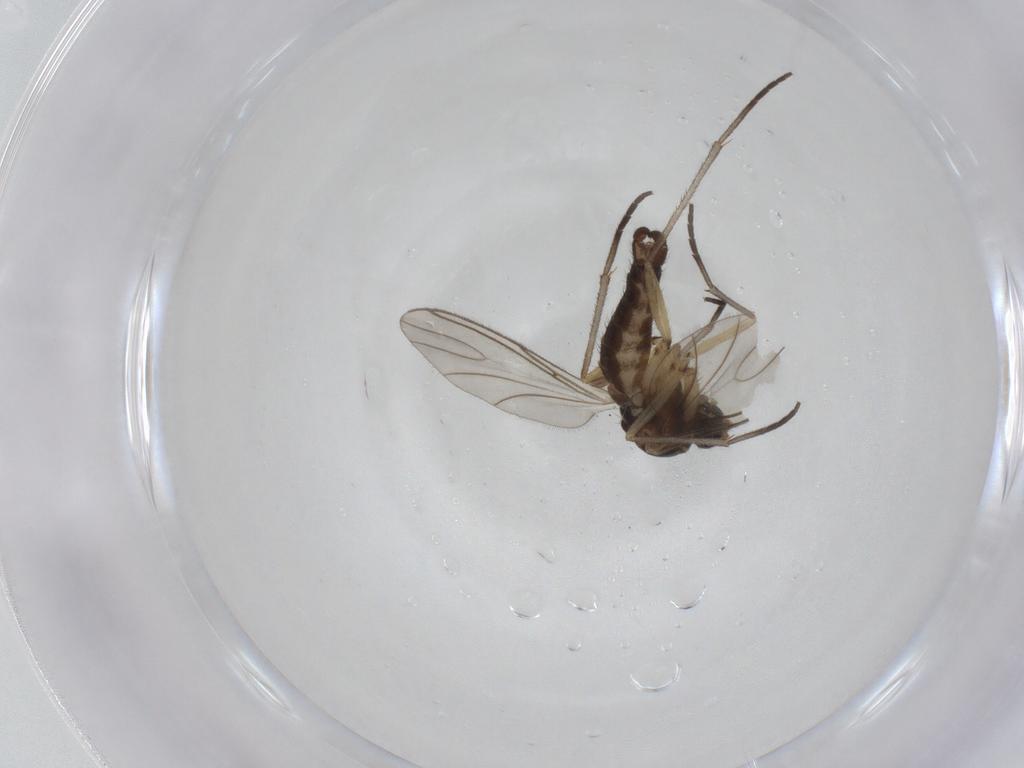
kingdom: Animalia
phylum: Arthropoda
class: Insecta
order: Diptera
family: Sciaridae
